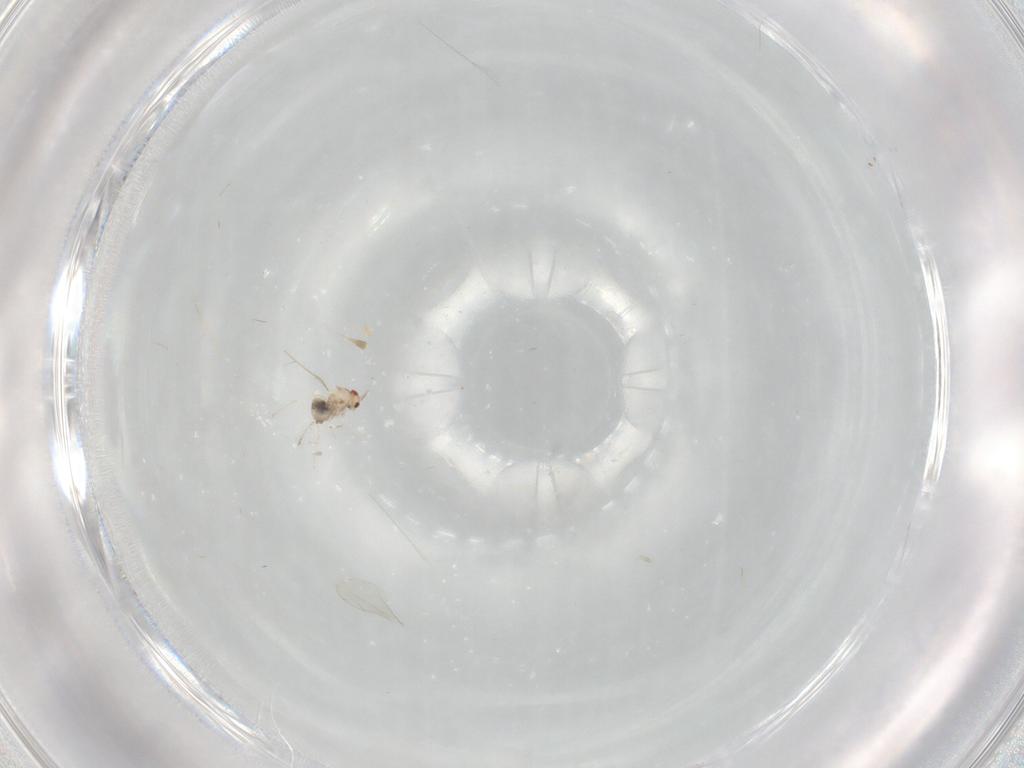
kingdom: Animalia
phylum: Arthropoda
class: Insecta
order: Diptera
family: Cecidomyiidae
